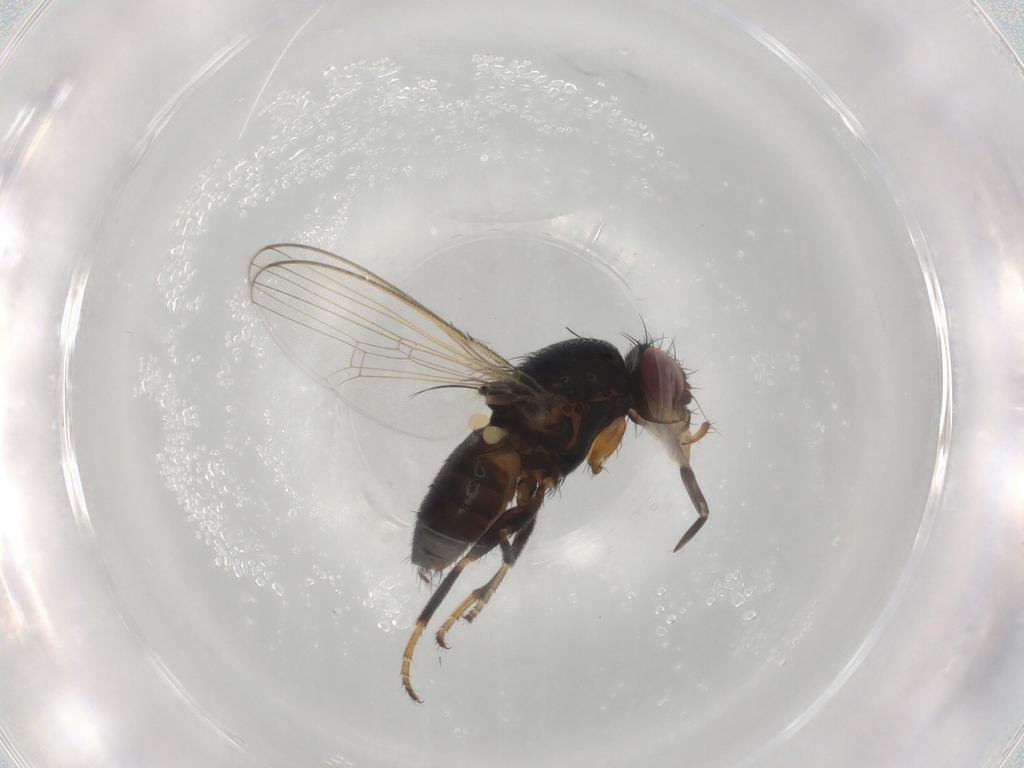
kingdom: Animalia
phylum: Arthropoda
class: Insecta
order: Diptera
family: Milichiidae
